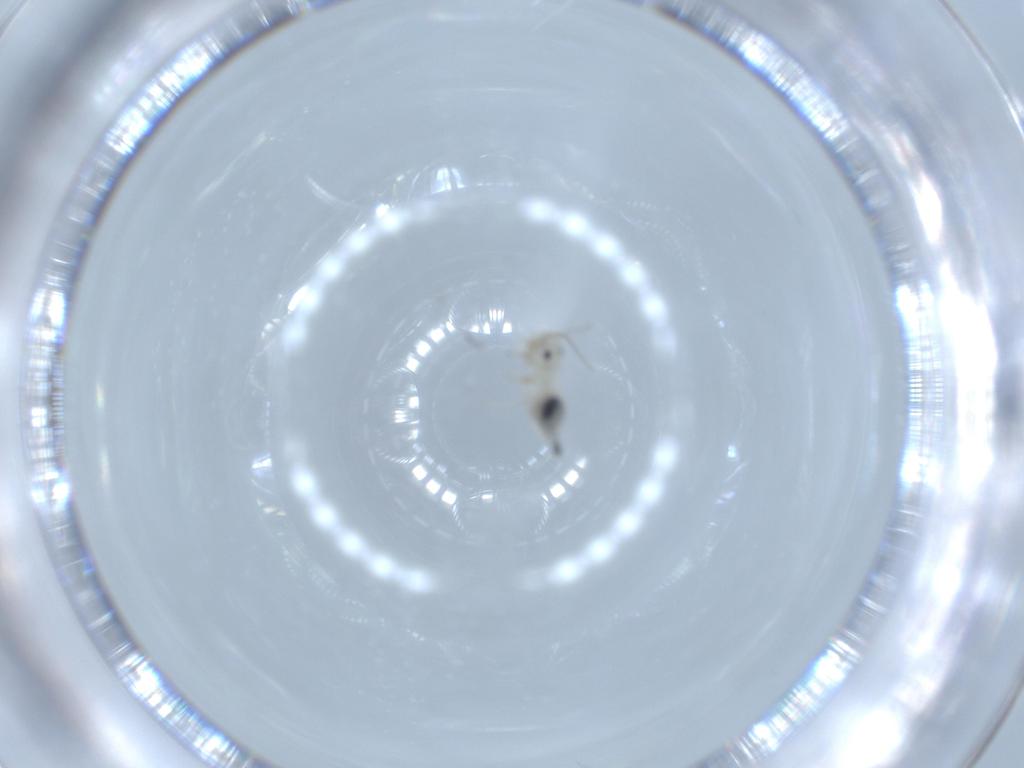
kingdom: Animalia
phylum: Arthropoda
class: Insecta
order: Psocodea
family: Caeciliusidae
